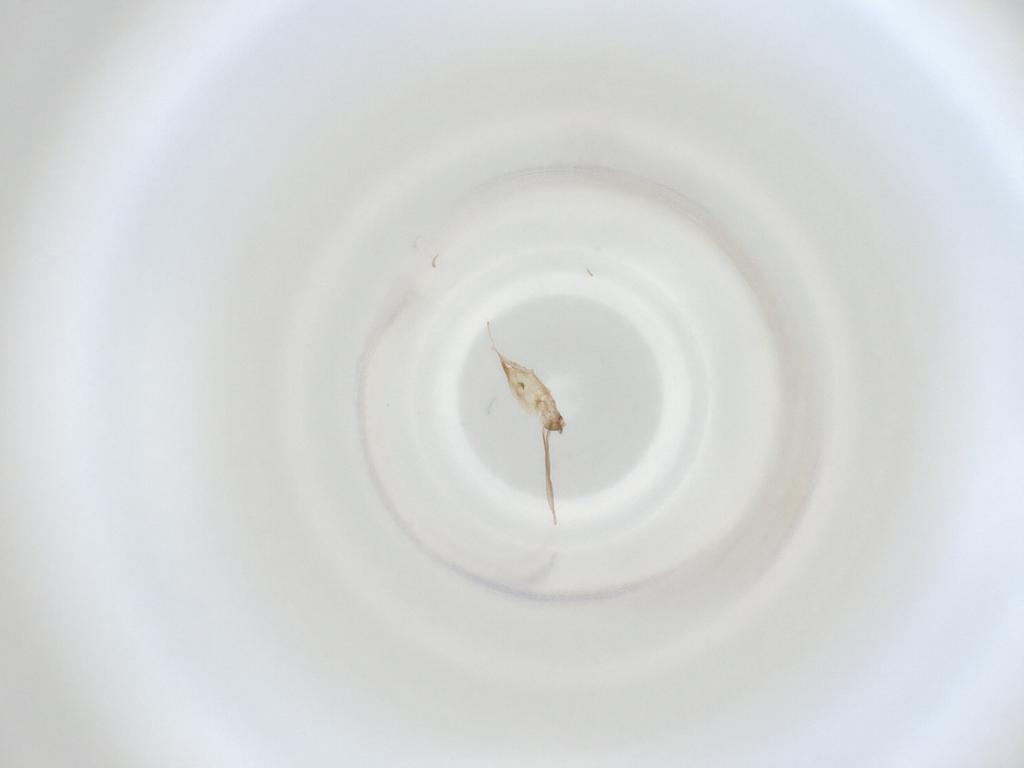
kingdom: Animalia
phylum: Arthropoda
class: Insecta
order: Diptera
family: Cecidomyiidae
